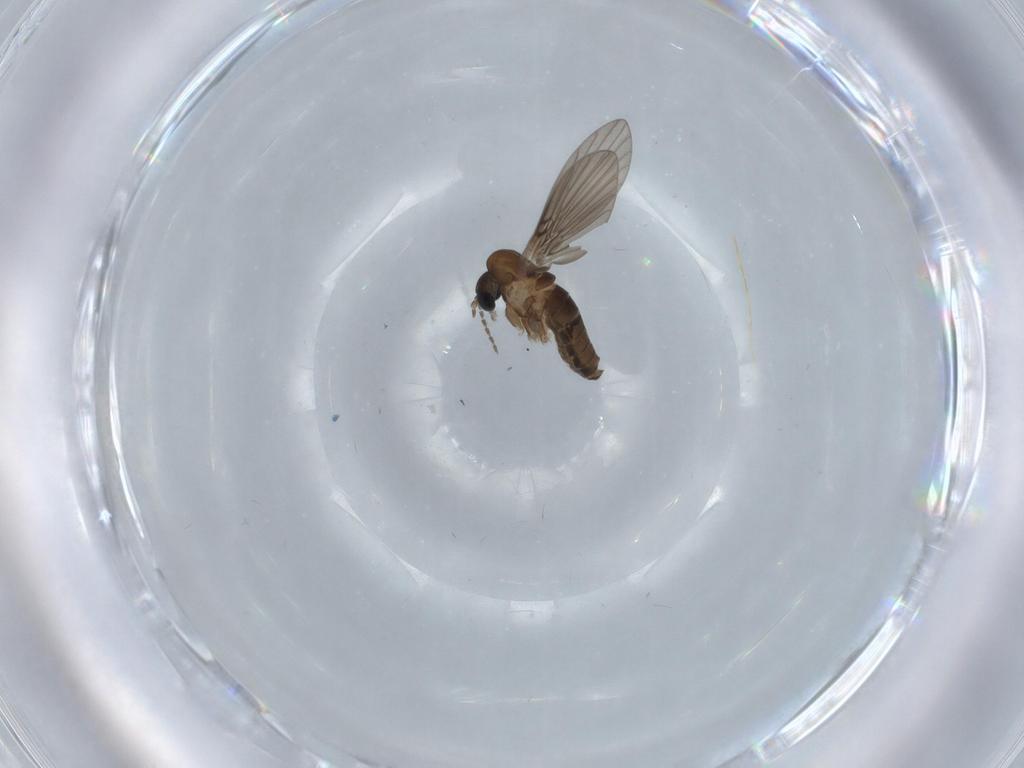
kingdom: Animalia
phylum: Arthropoda
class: Insecta
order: Diptera
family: Psychodidae
